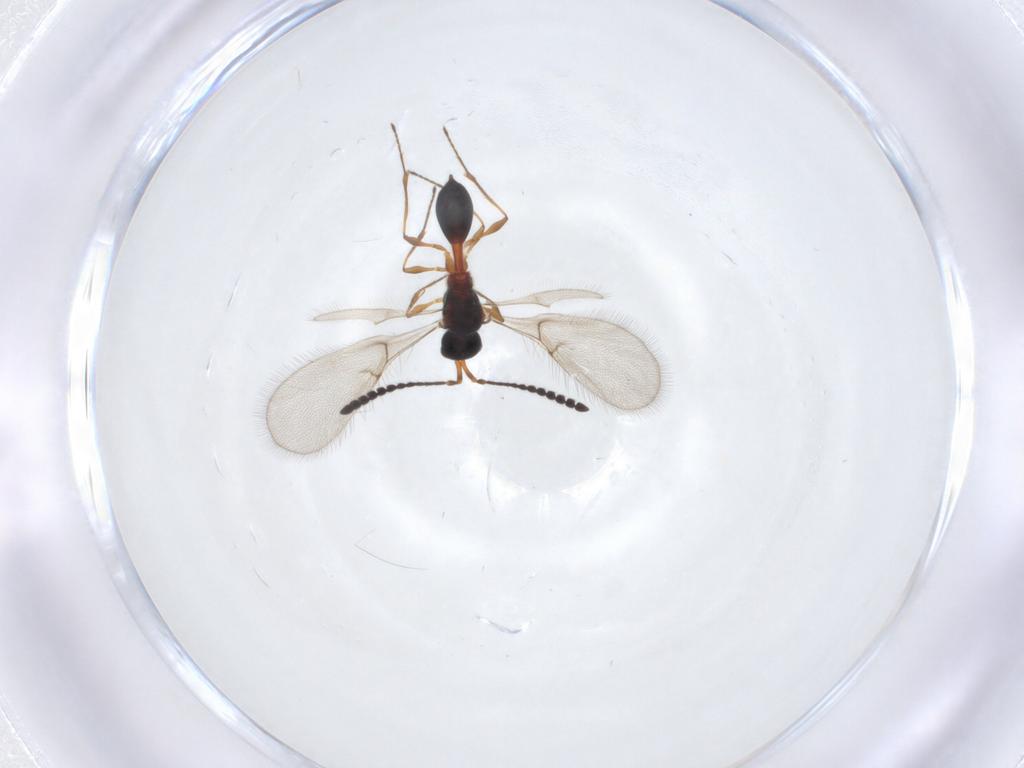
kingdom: Animalia
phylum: Arthropoda
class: Insecta
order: Hymenoptera
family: Diapriidae
